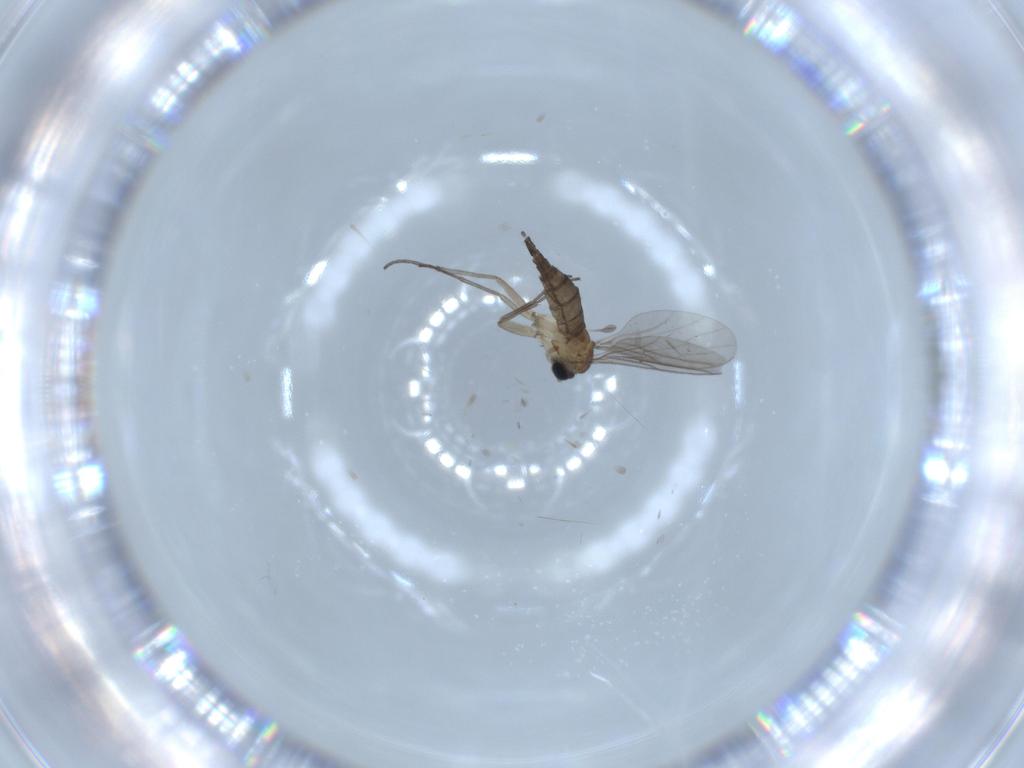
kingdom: Animalia
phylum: Arthropoda
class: Insecta
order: Diptera
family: Sciaridae
